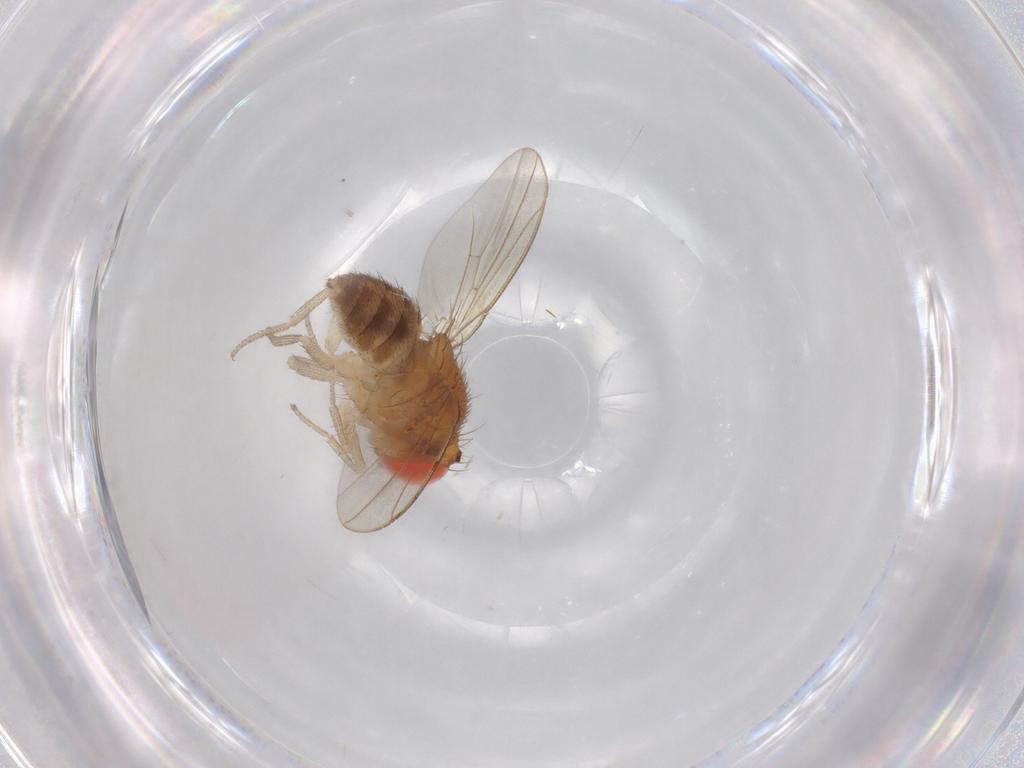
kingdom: Animalia
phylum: Arthropoda
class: Insecta
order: Diptera
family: Drosophilidae
